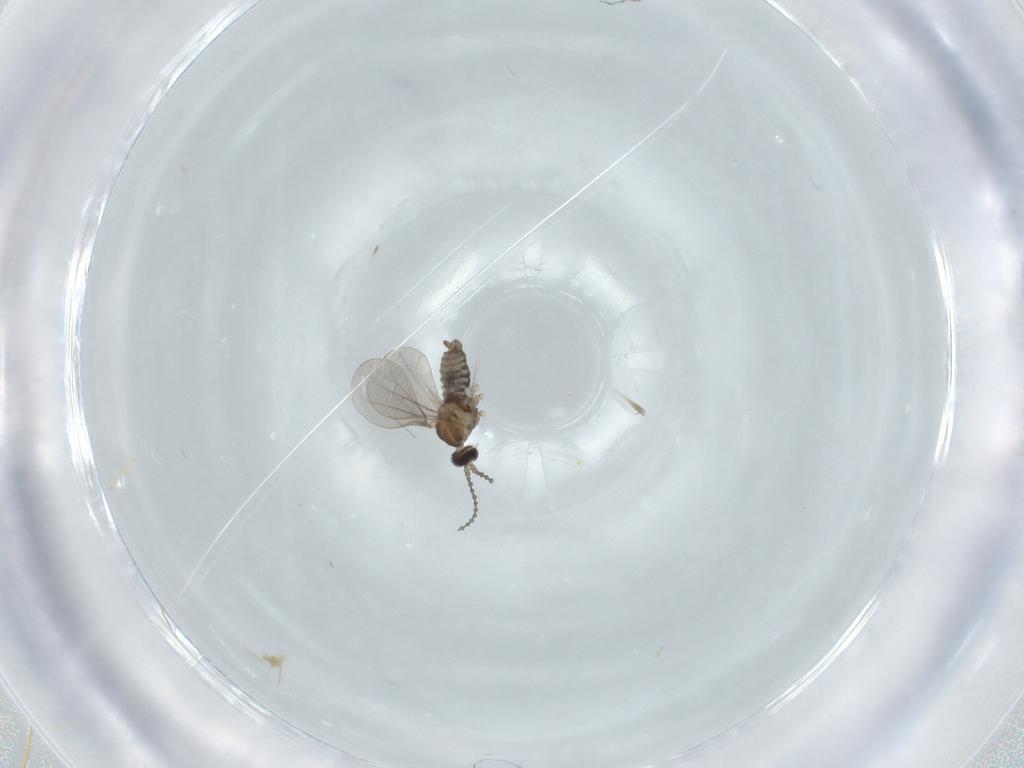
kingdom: Animalia
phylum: Arthropoda
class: Insecta
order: Diptera
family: Cecidomyiidae
